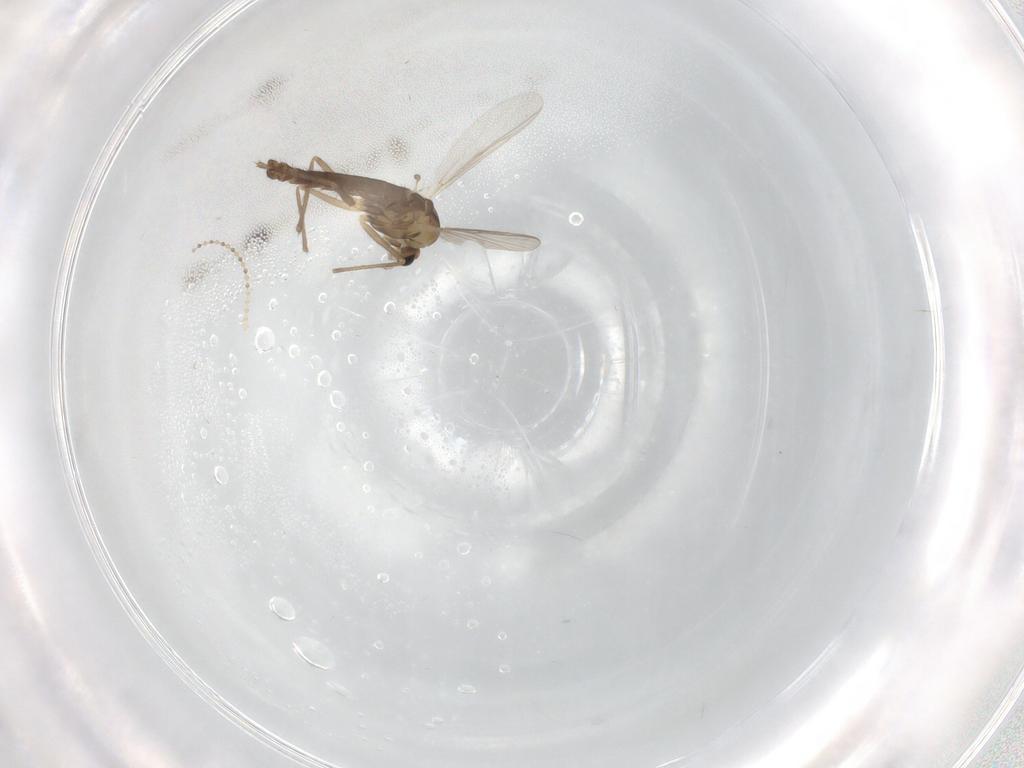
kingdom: Animalia
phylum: Arthropoda
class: Insecta
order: Diptera
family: Chironomidae
